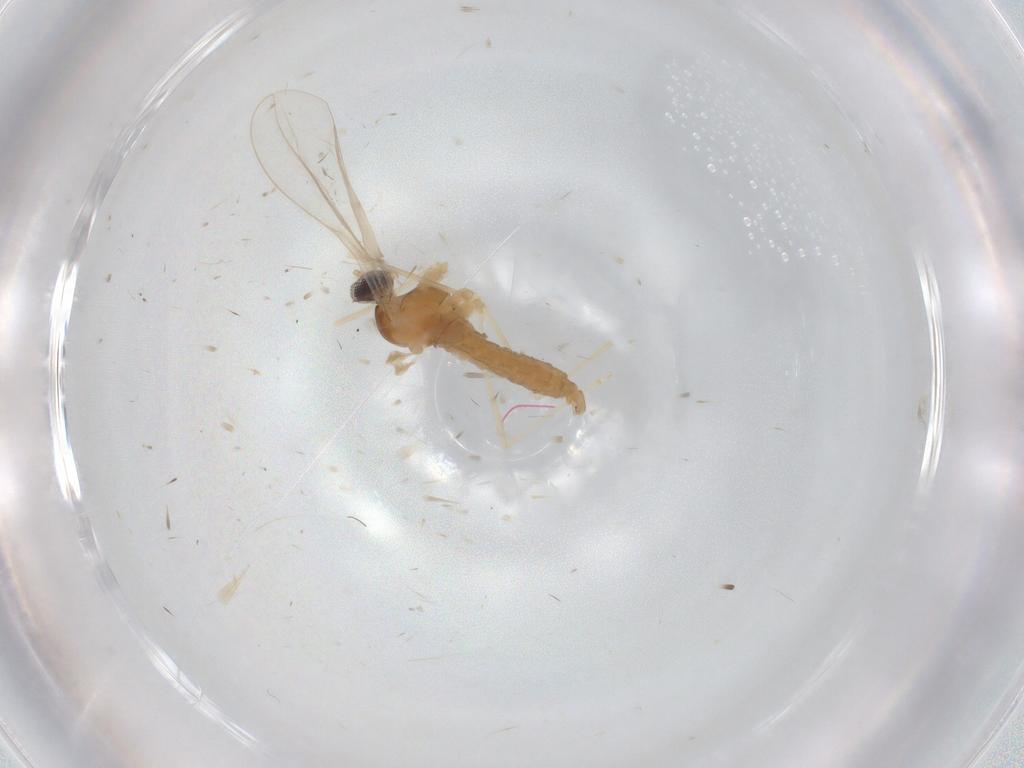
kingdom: Animalia
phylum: Arthropoda
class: Insecta
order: Diptera
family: Cecidomyiidae
